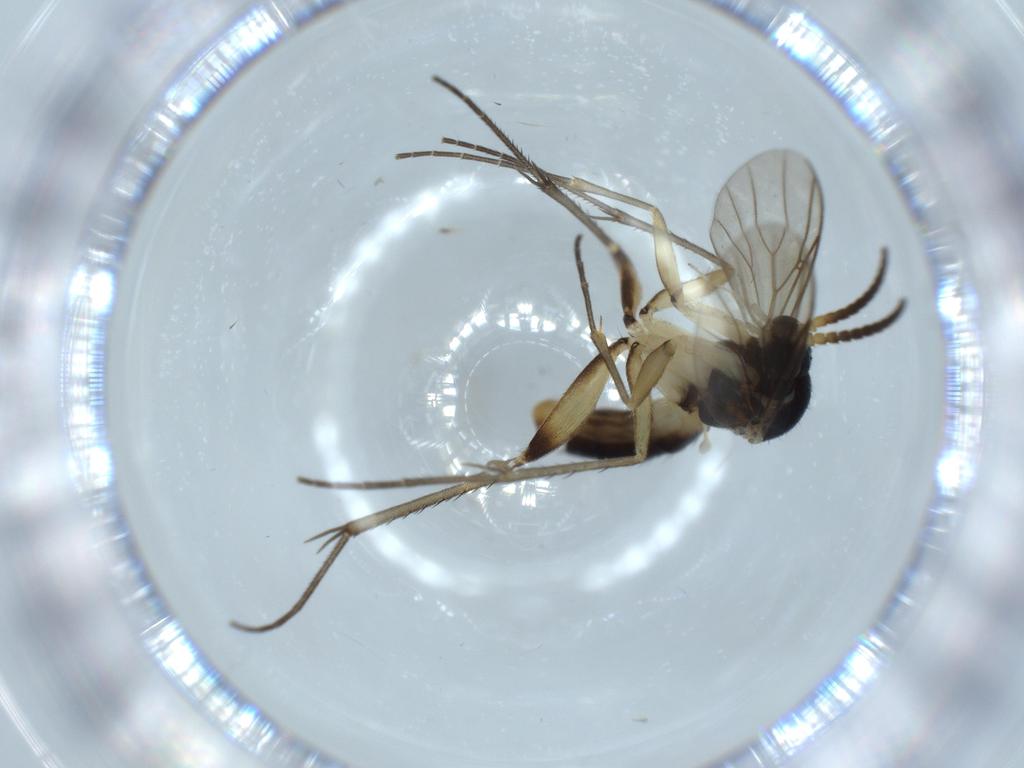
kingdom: Animalia
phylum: Arthropoda
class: Insecta
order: Diptera
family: Mycetophilidae
